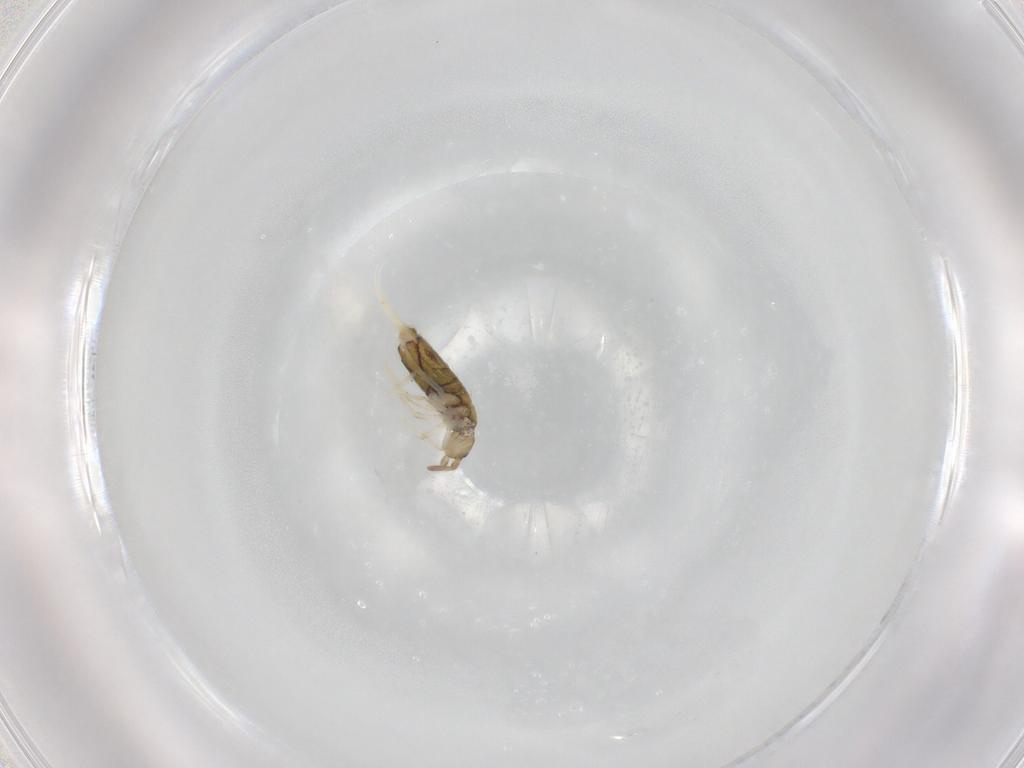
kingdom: Animalia
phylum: Arthropoda
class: Collembola
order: Entomobryomorpha
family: Entomobryidae
